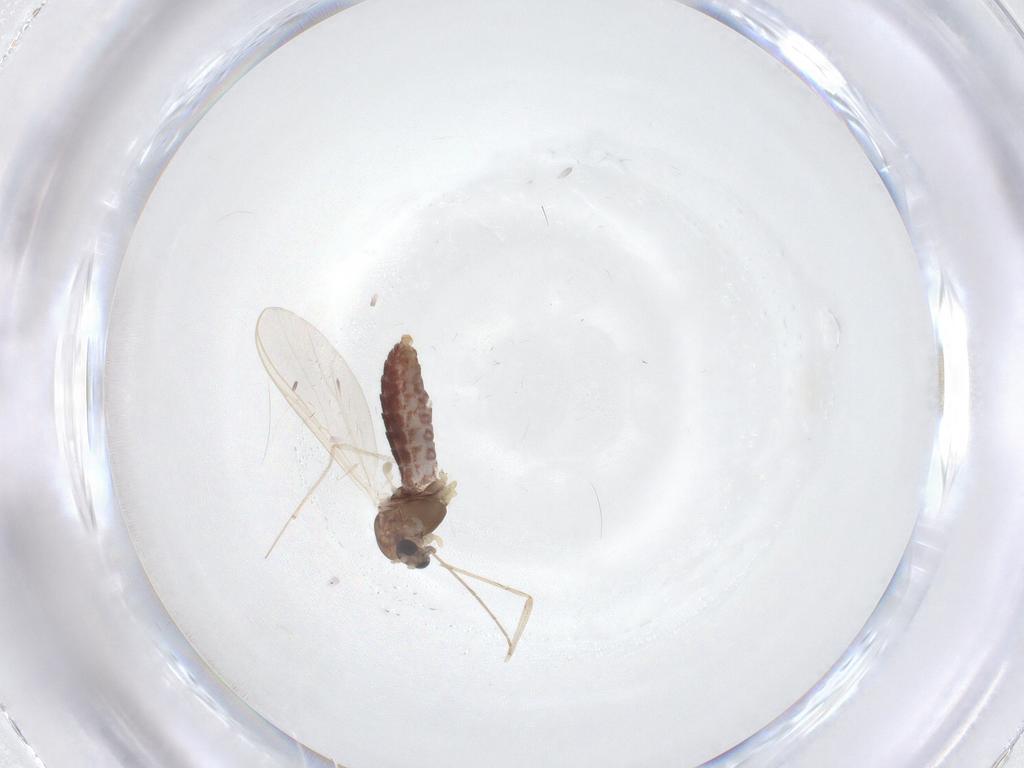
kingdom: Animalia
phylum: Arthropoda
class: Insecta
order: Diptera
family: Chironomidae
